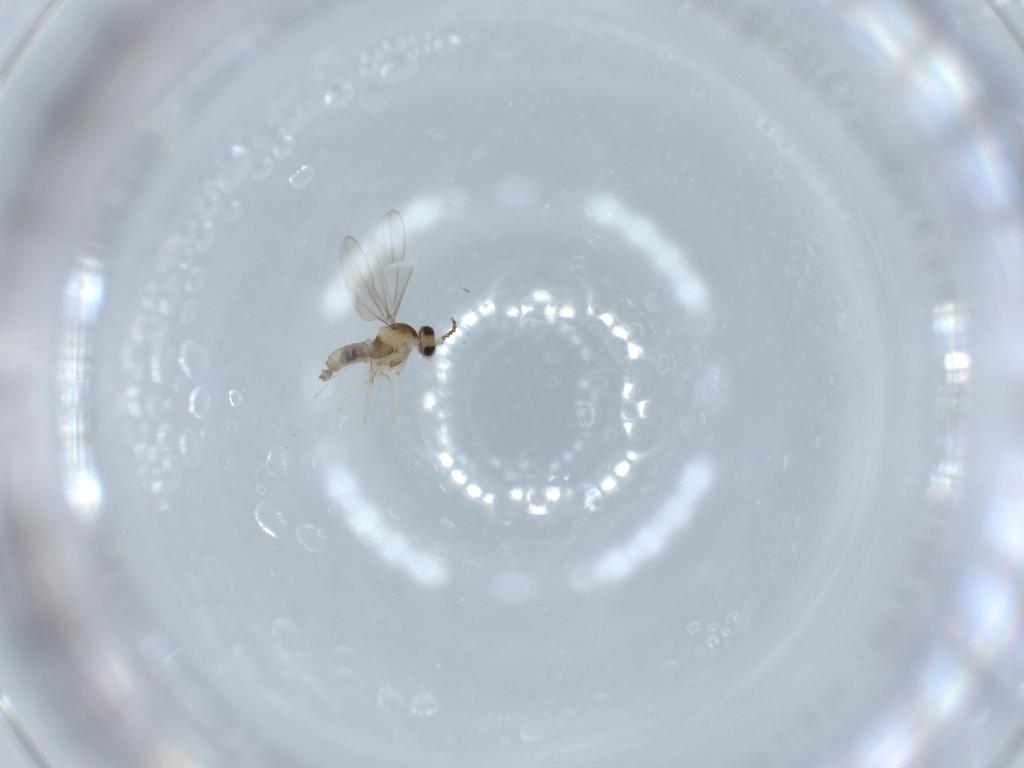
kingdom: Animalia
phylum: Arthropoda
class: Insecta
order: Diptera
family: Cecidomyiidae
